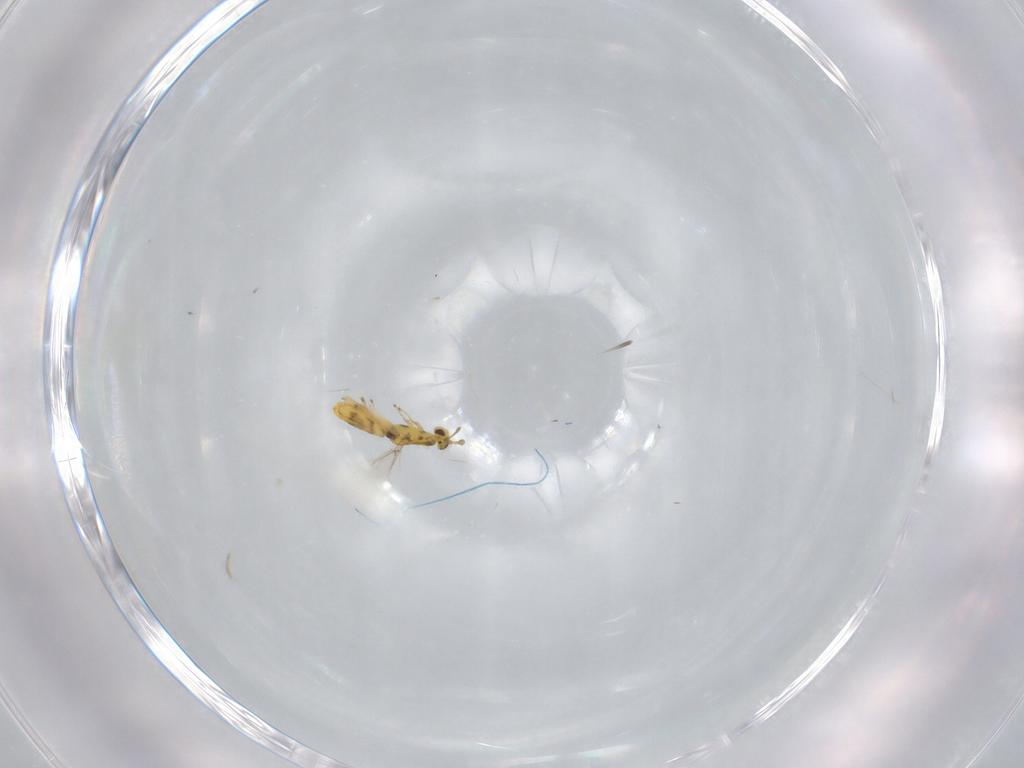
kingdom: Animalia
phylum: Arthropoda
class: Insecta
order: Hymenoptera
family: Eulophidae
